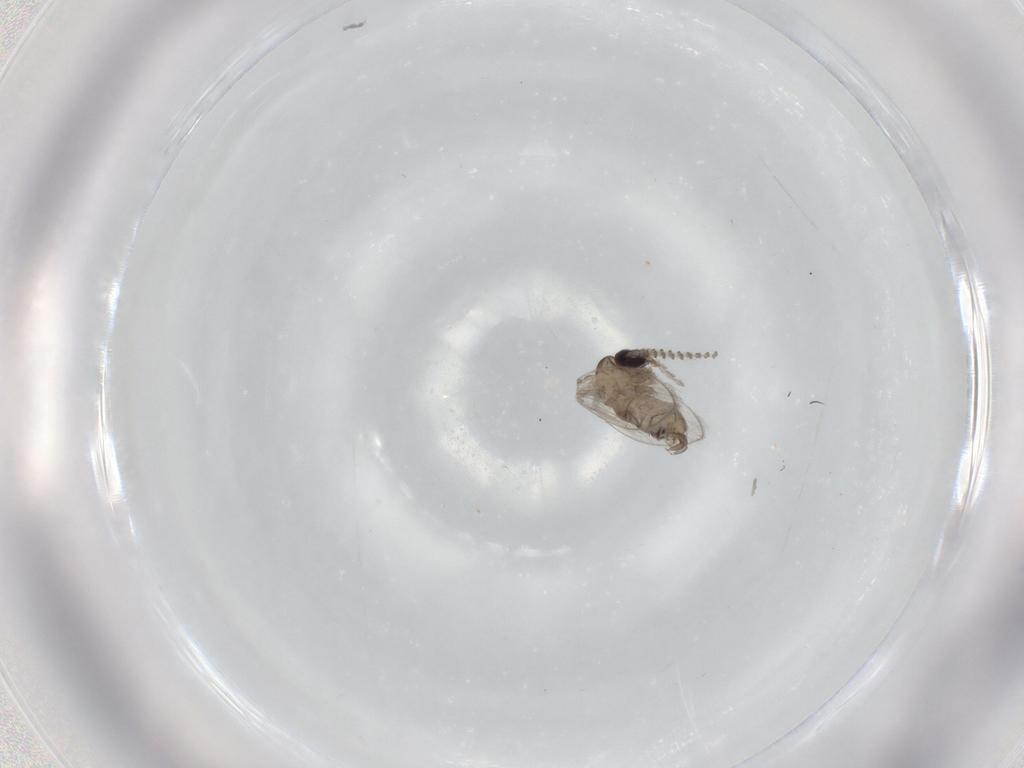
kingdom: Animalia
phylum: Arthropoda
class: Insecta
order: Diptera
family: Psychodidae
